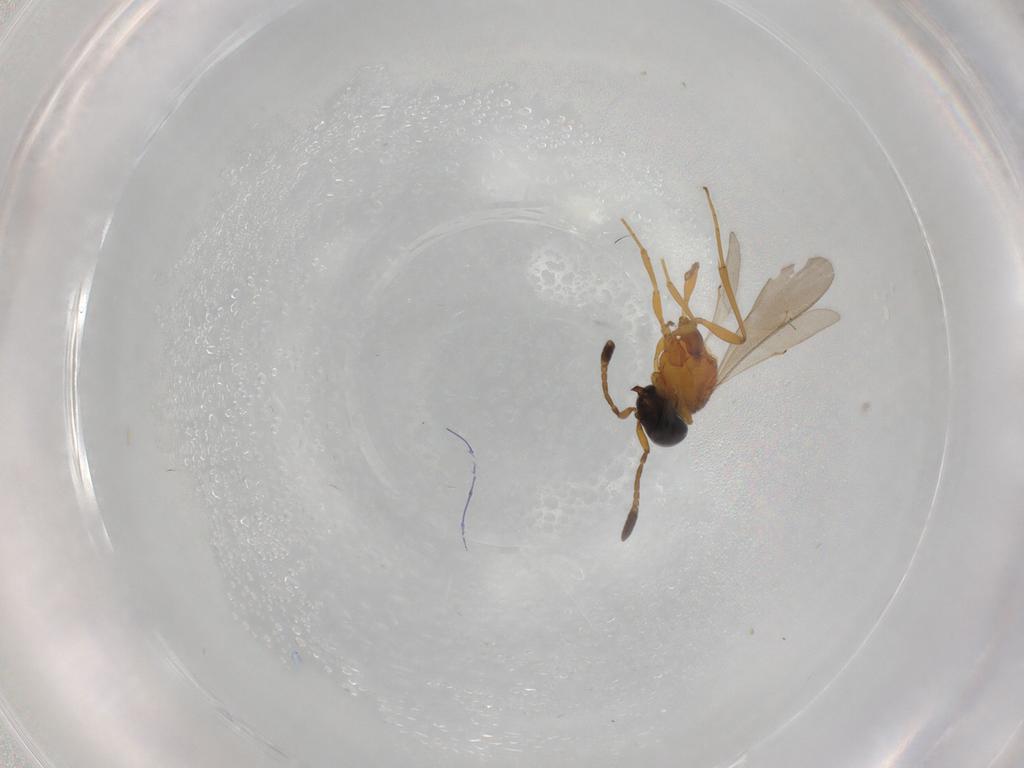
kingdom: Animalia
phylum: Arthropoda
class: Insecta
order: Hymenoptera
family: Scelionidae
